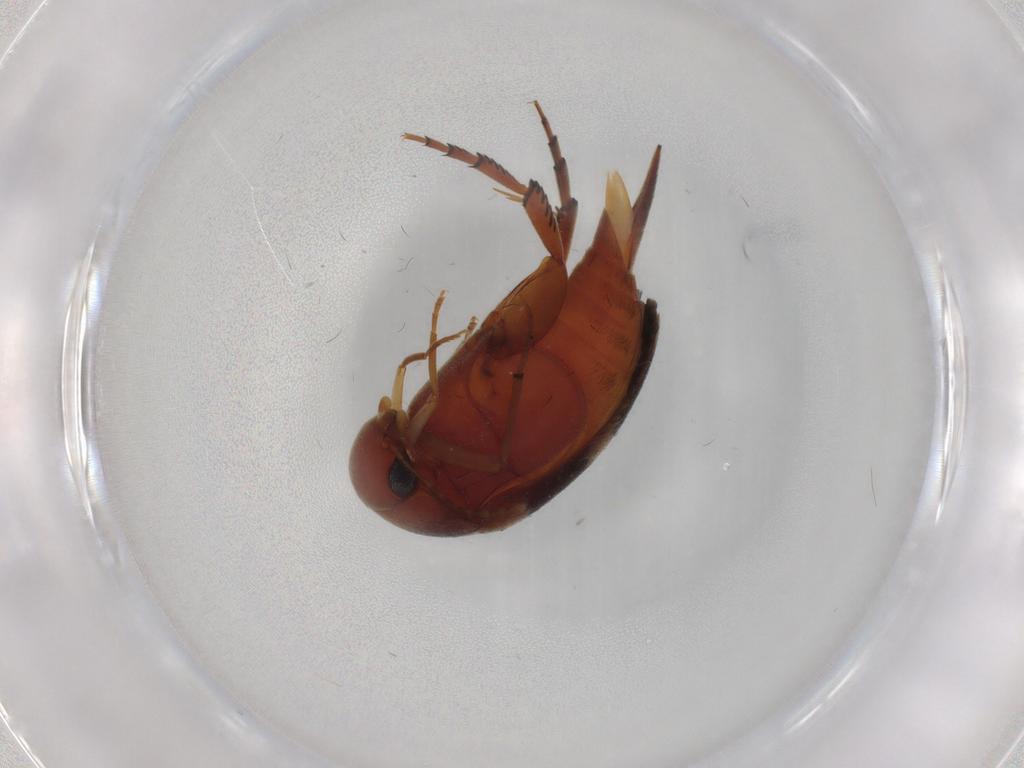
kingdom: Animalia
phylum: Arthropoda
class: Insecta
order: Coleoptera
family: Mordellidae
